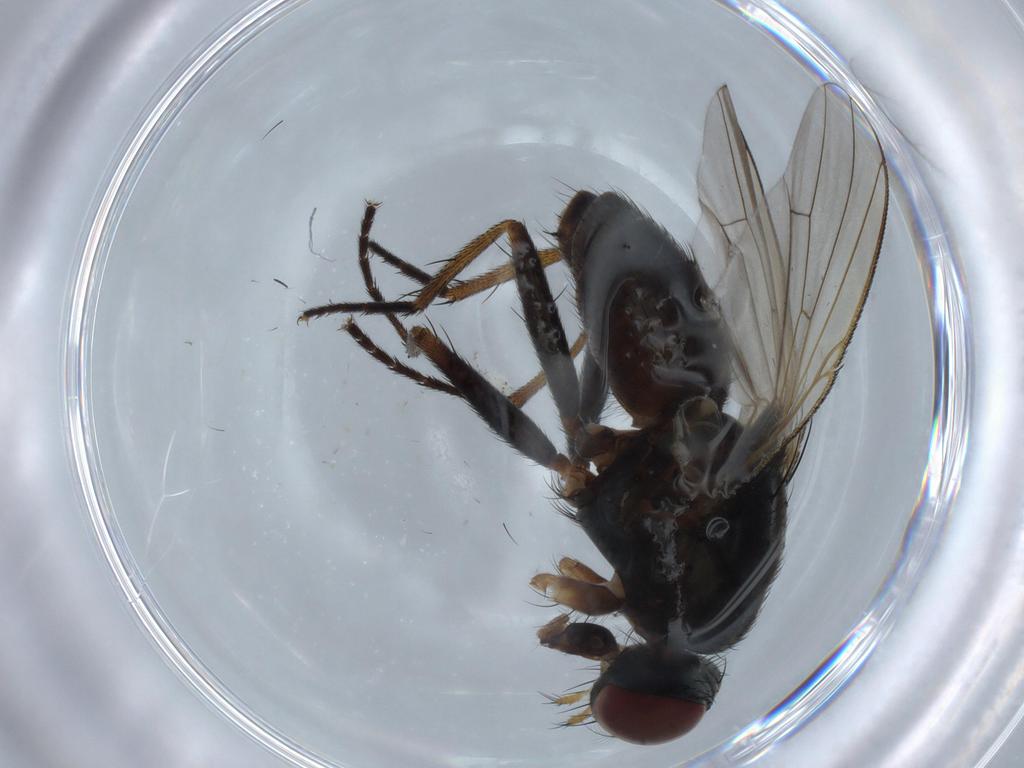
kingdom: Animalia
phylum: Arthropoda
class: Insecta
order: Diptera
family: Muscidae
